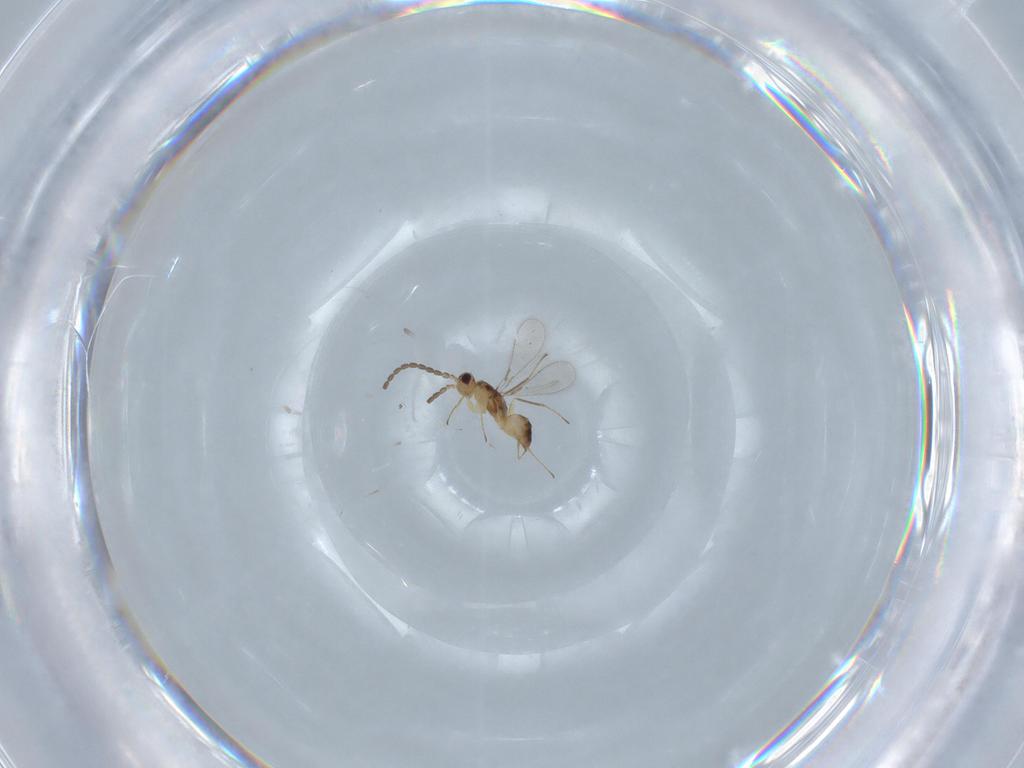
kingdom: Animalia
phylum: Arthropoda
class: Insecta
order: Hymenoptera
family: Mymaridae
